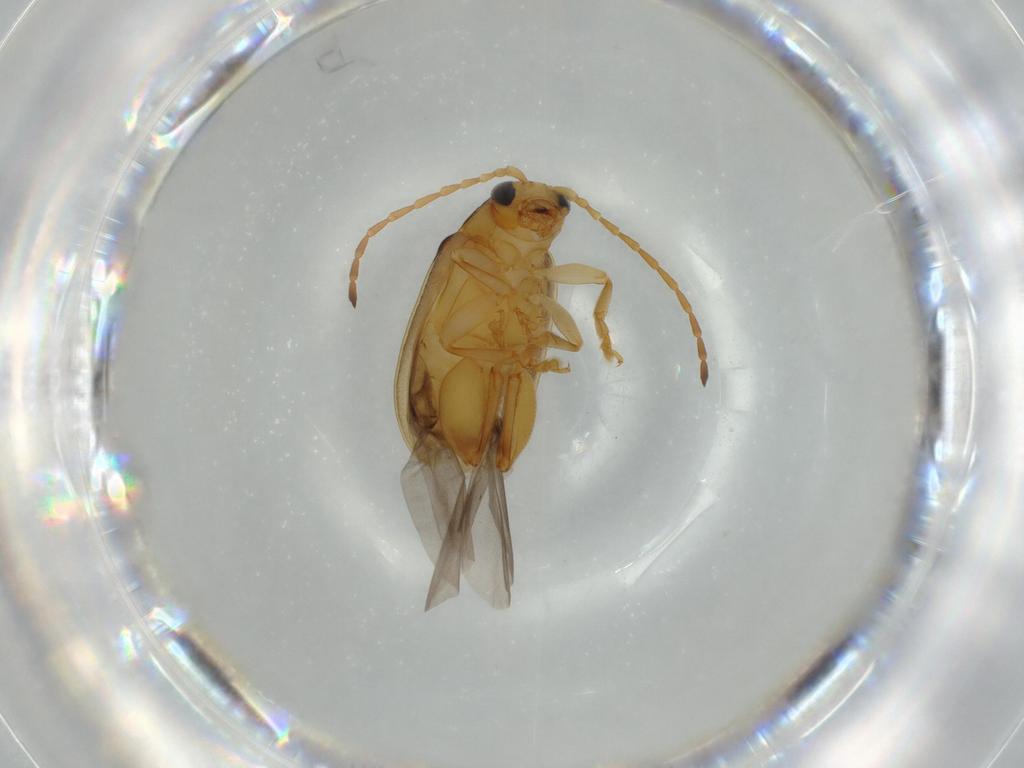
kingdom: Animalia
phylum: Arthropoda
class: Insecta
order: Coleoptera
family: Chrysomelidae
